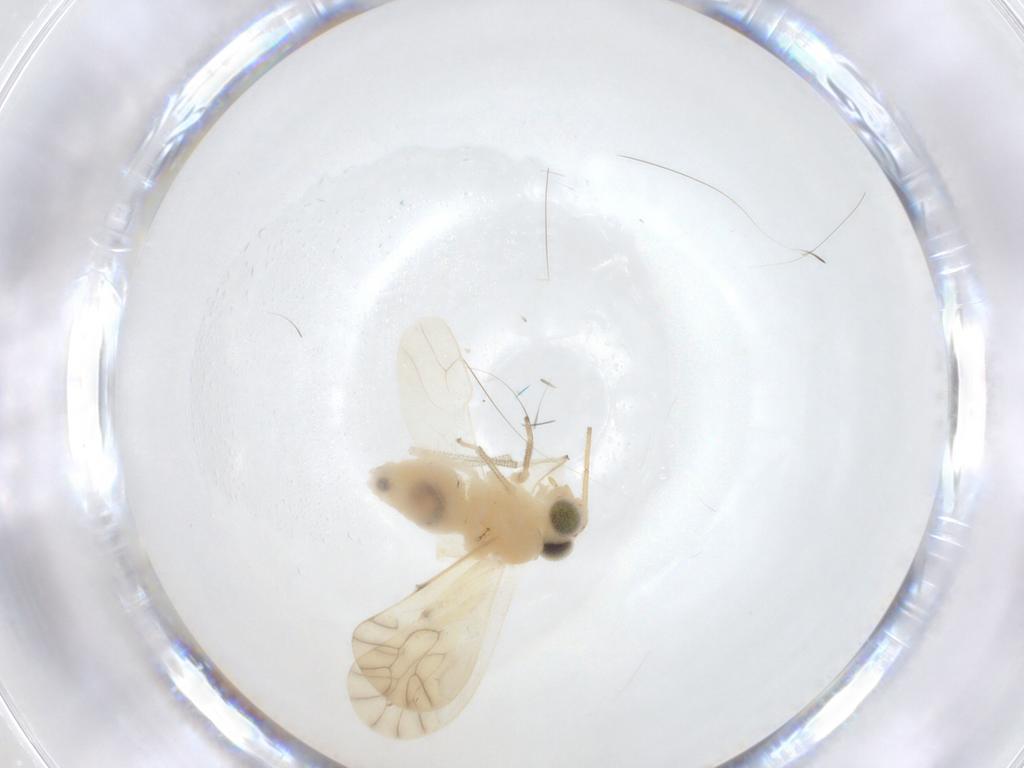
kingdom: Animalia
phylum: Arthropoda
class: Insecta
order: Psocodea
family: Caeciliusidae
